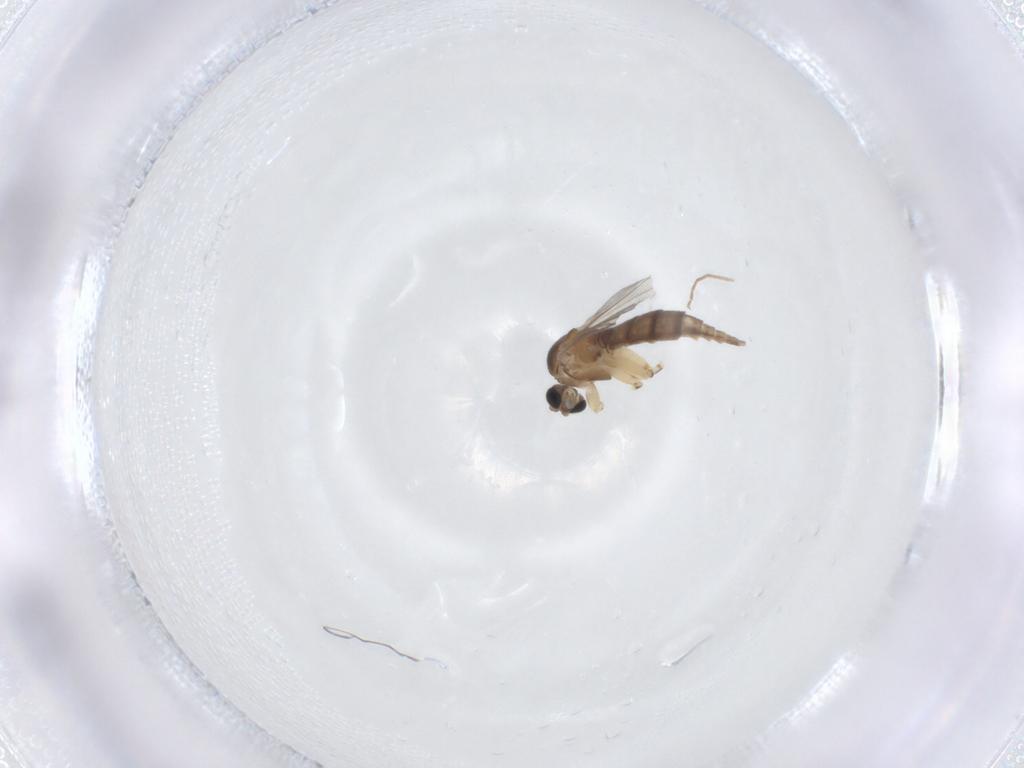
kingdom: Animalia
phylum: Arthropoda
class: Insecta
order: Diptera
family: Sciaridae
